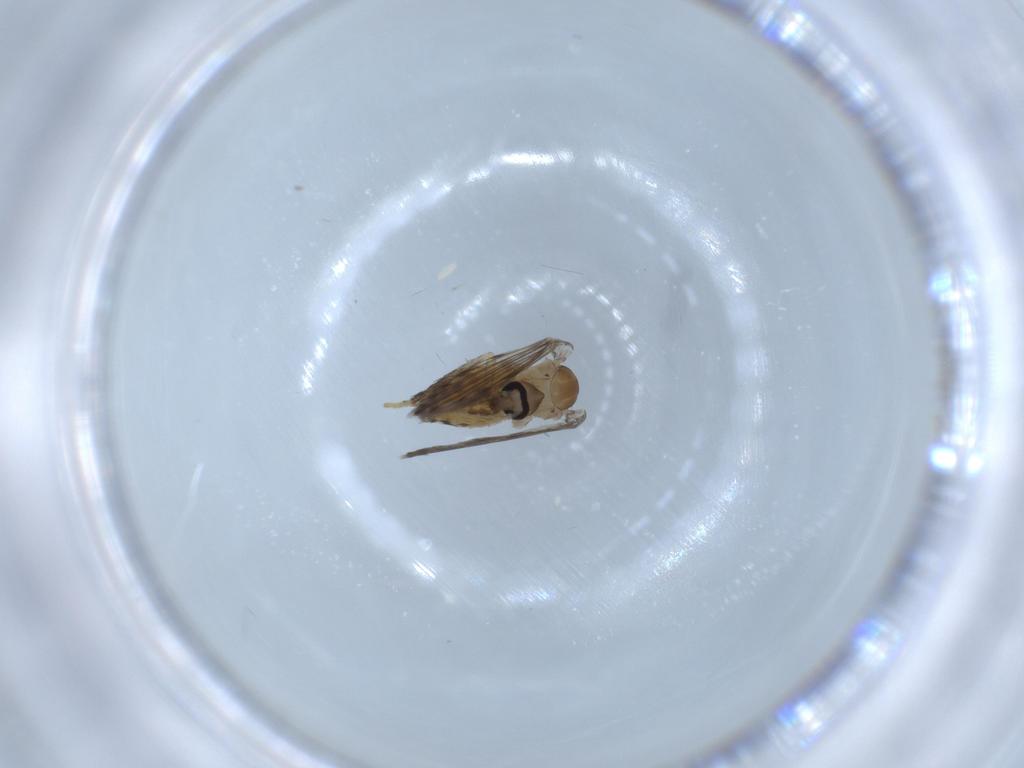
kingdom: Animalia
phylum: Arthropoda
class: Insecta
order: Diptera
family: Psychodidae
